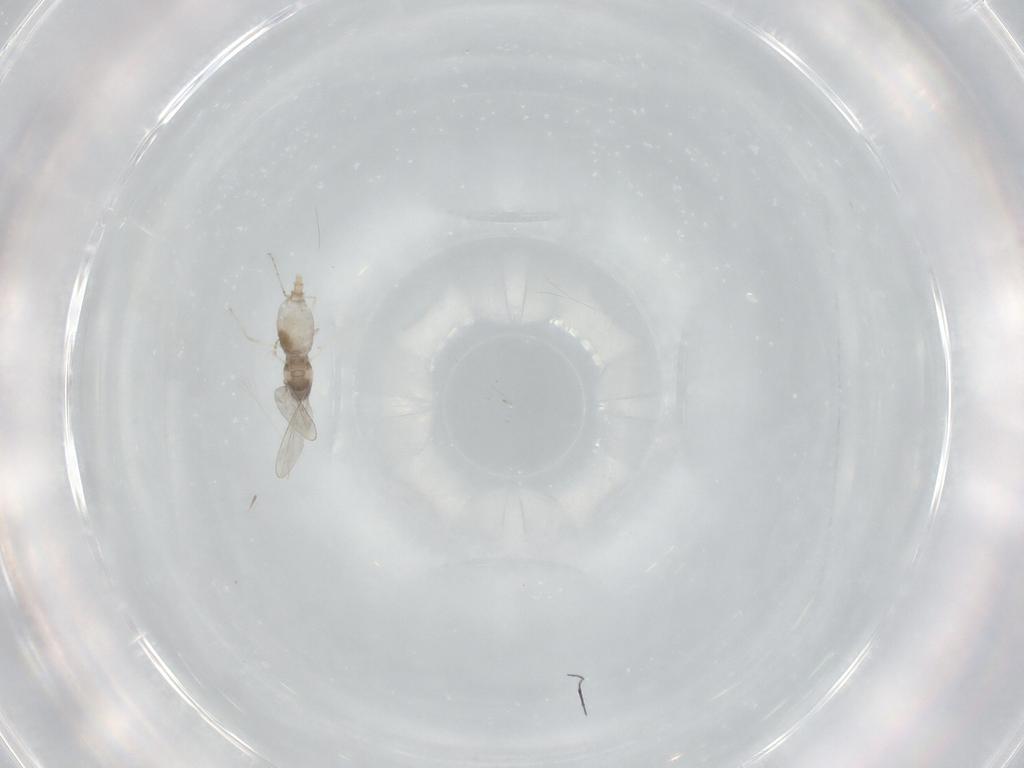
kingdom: Animalia
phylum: Arthropoda
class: Insecta
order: Diptera
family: Cecidomyiidae
